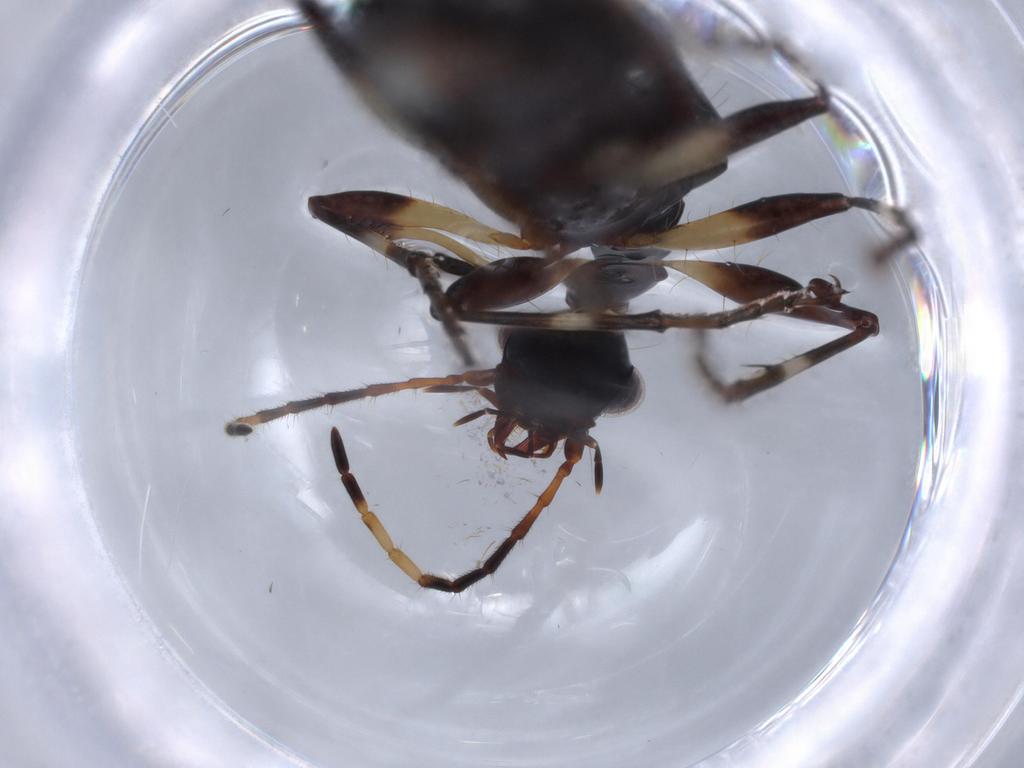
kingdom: Animalia
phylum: Arthropoda
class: Insecta
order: Coleoptera
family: Carabidae
